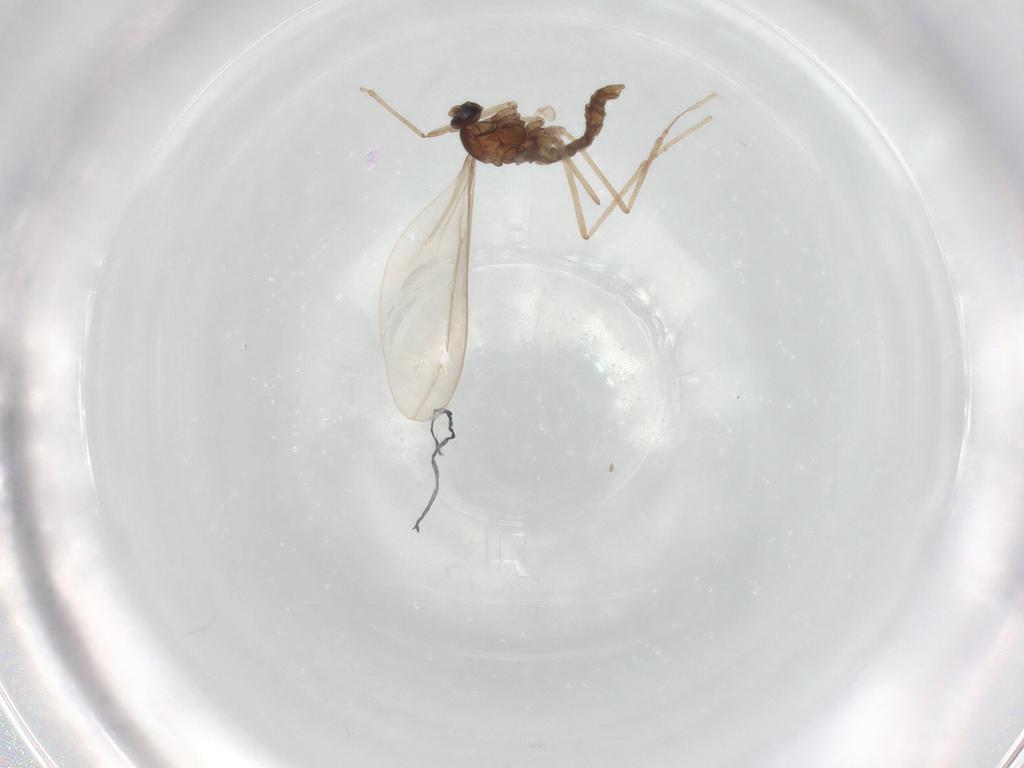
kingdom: Animalia
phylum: Arthropoda
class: Insecta
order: Diptera
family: Chloropidae
